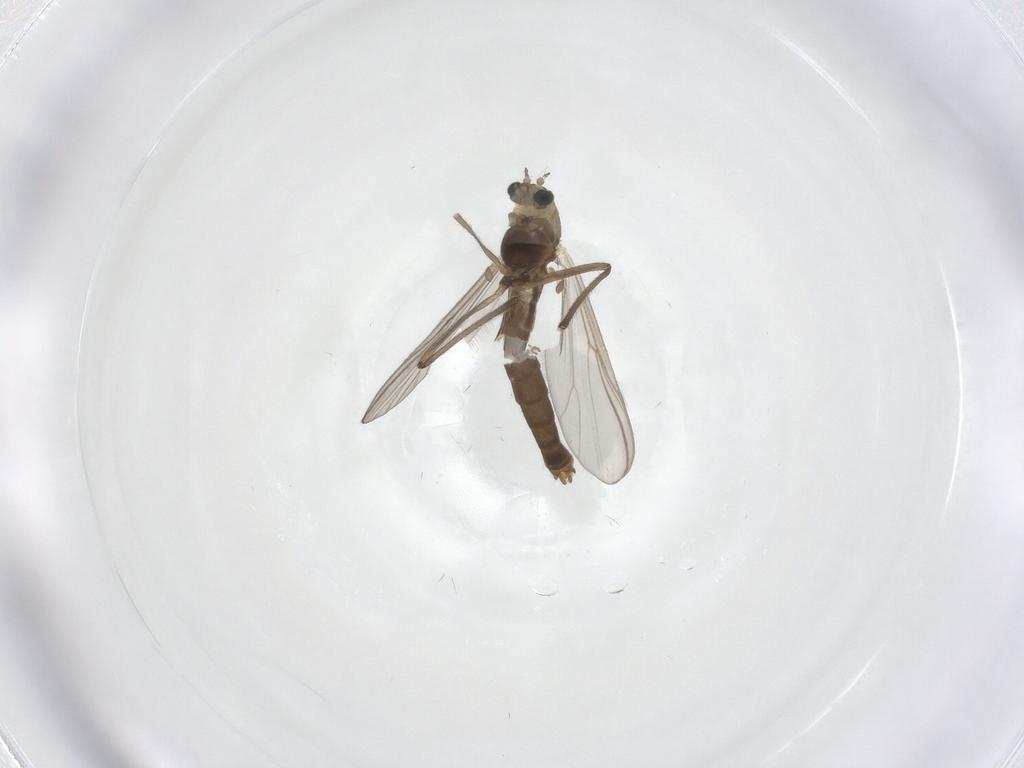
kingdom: Animalia
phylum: Arthropoda
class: Insecta
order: Diptera
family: Chironomidae
